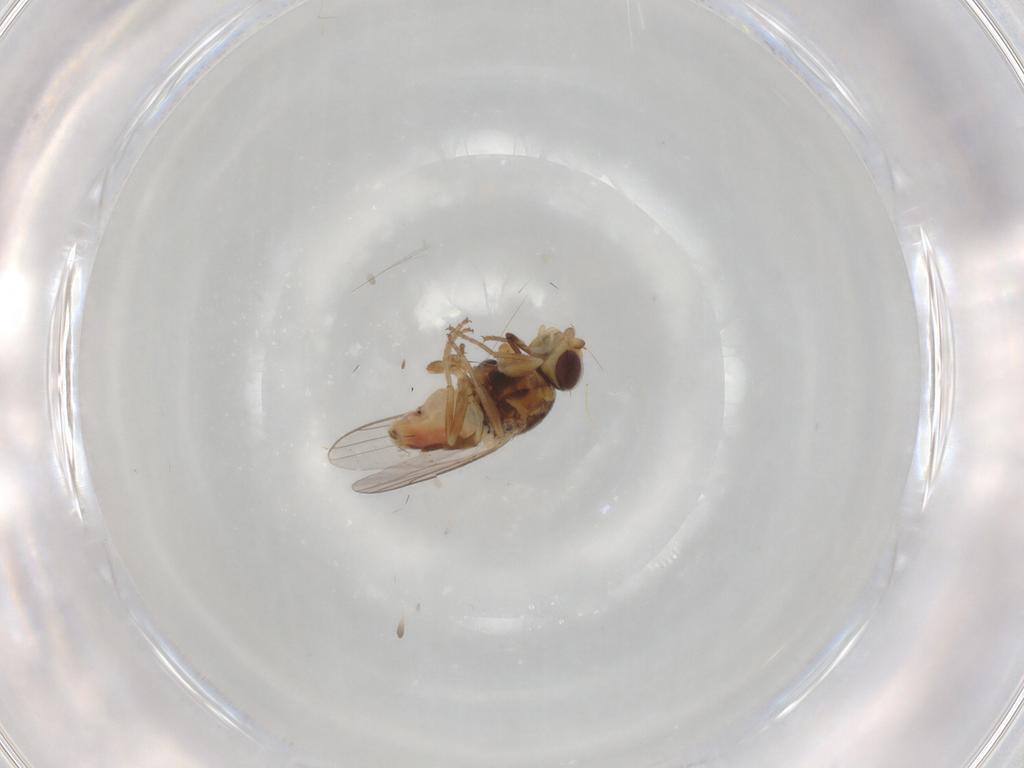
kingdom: Animalia
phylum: Arthropoda
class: Insecta
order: Diptera
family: Chloropidae
